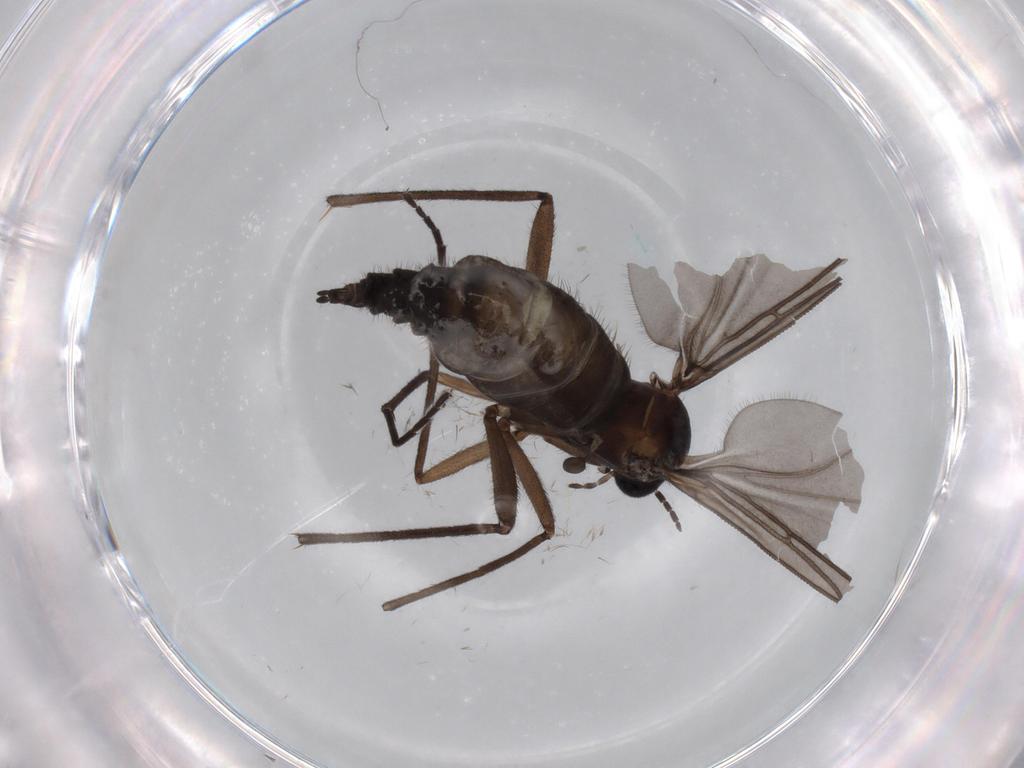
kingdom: Animalia
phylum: Arthropoda
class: Insecta
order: Diptera
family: Sciaridae
